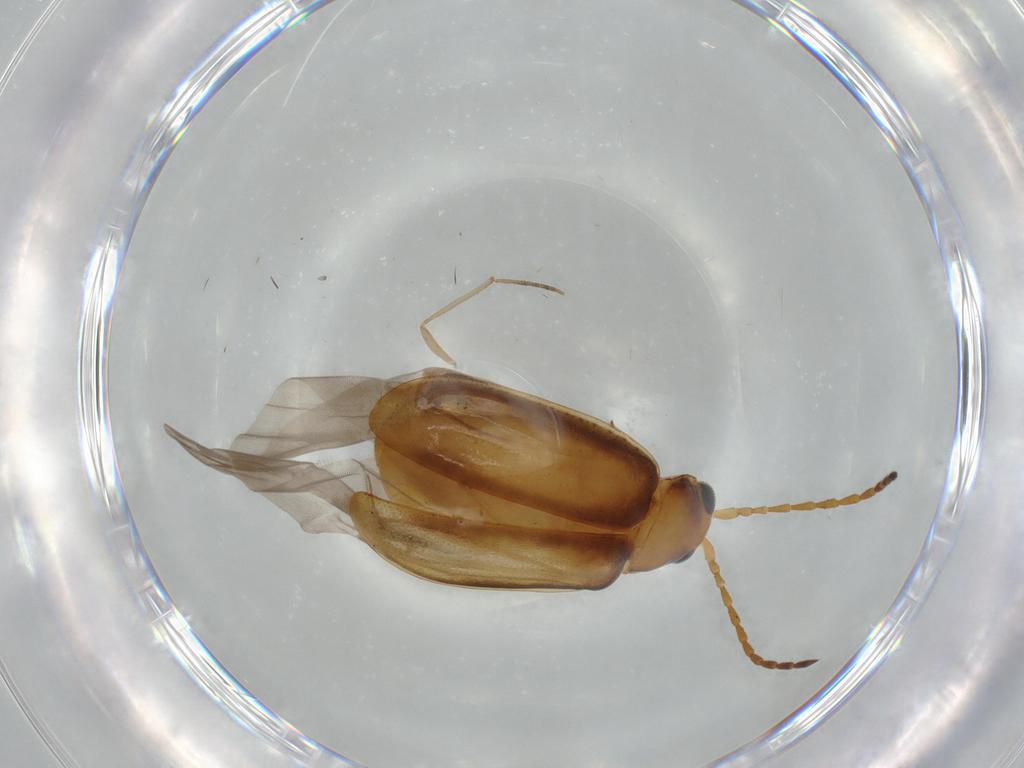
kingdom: Animalia
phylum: Arthropoda
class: Insecta
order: Coleoptera
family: Chrysomelidae
